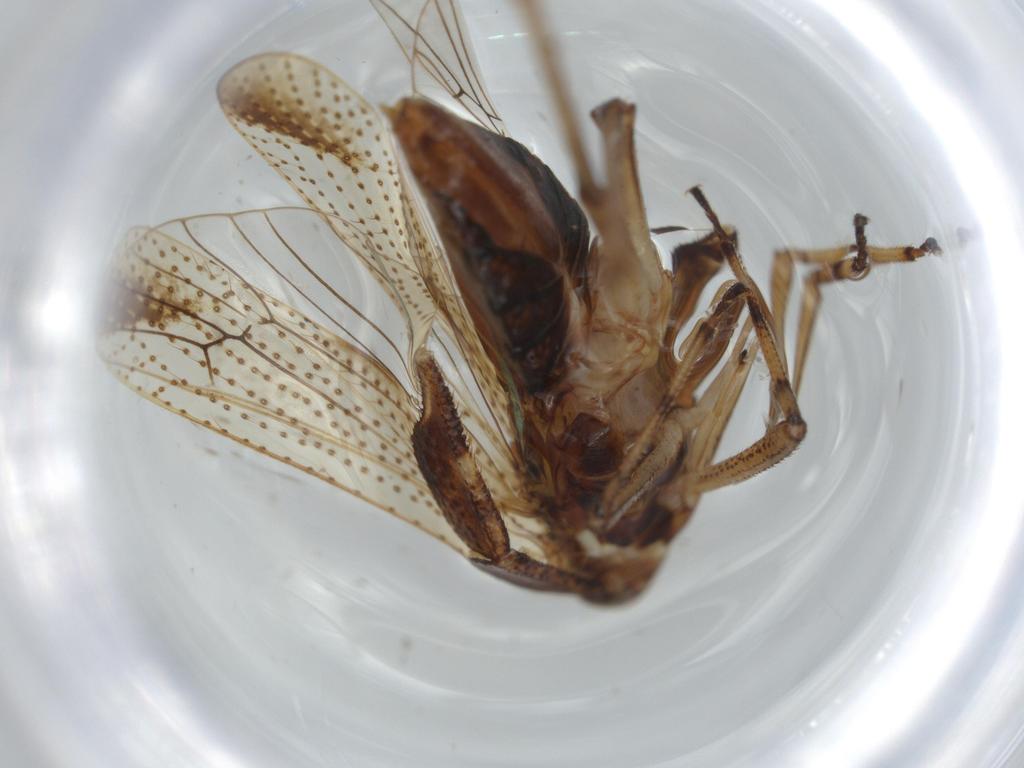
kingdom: Animalia
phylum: Arthropoda
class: Insecta
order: Hemiptera
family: Delphacidae
